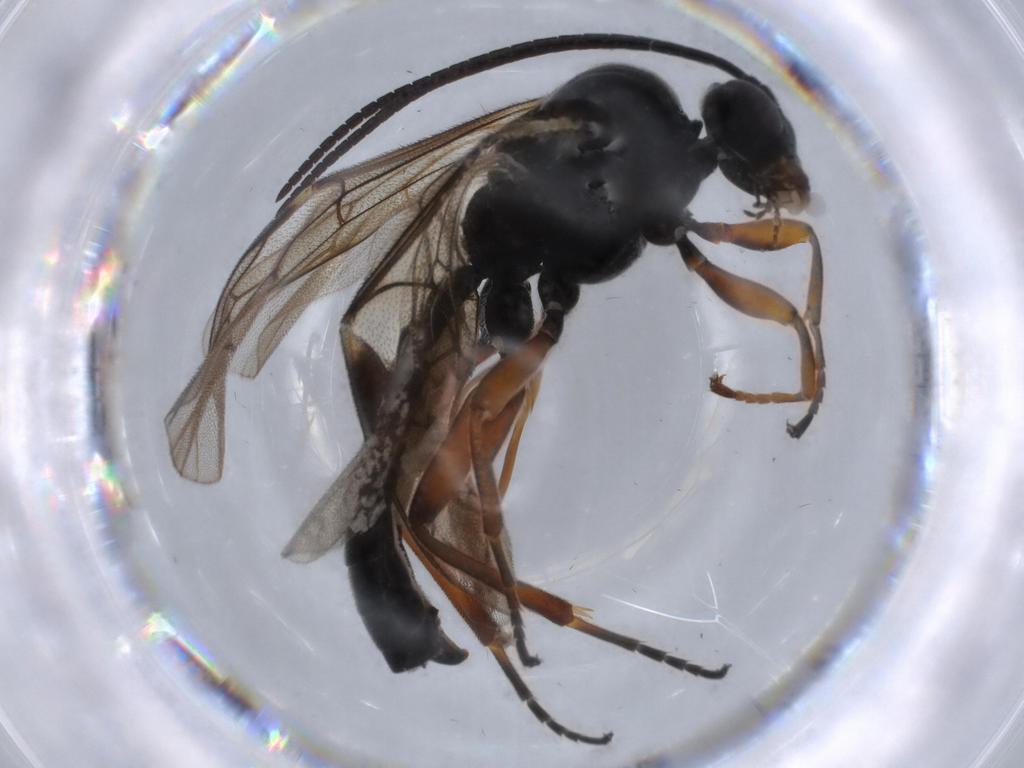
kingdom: Animalia
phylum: Arthropoda
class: Insecta
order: Hymenoptera
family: Ichneumonidae
